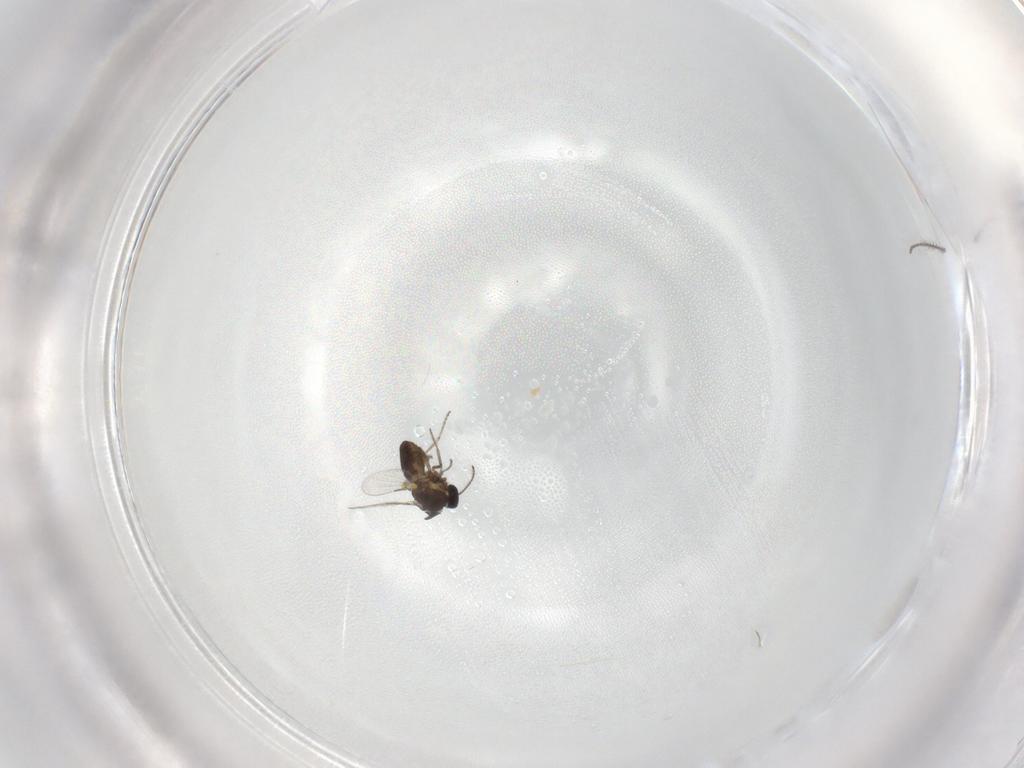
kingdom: Animalia
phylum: Arthropoda
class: Insecta
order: Diptera
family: Ceratopogonidae
